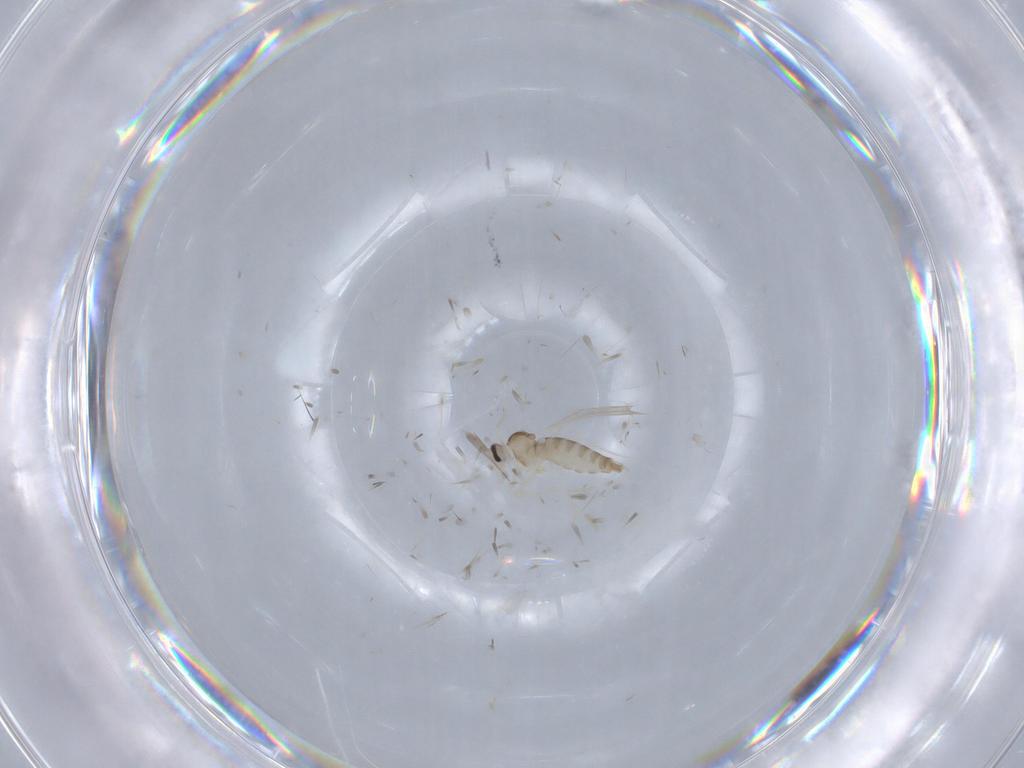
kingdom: Animalia
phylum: Arthropoda
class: Insecta
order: Diptera
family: Cecidomyiidae
